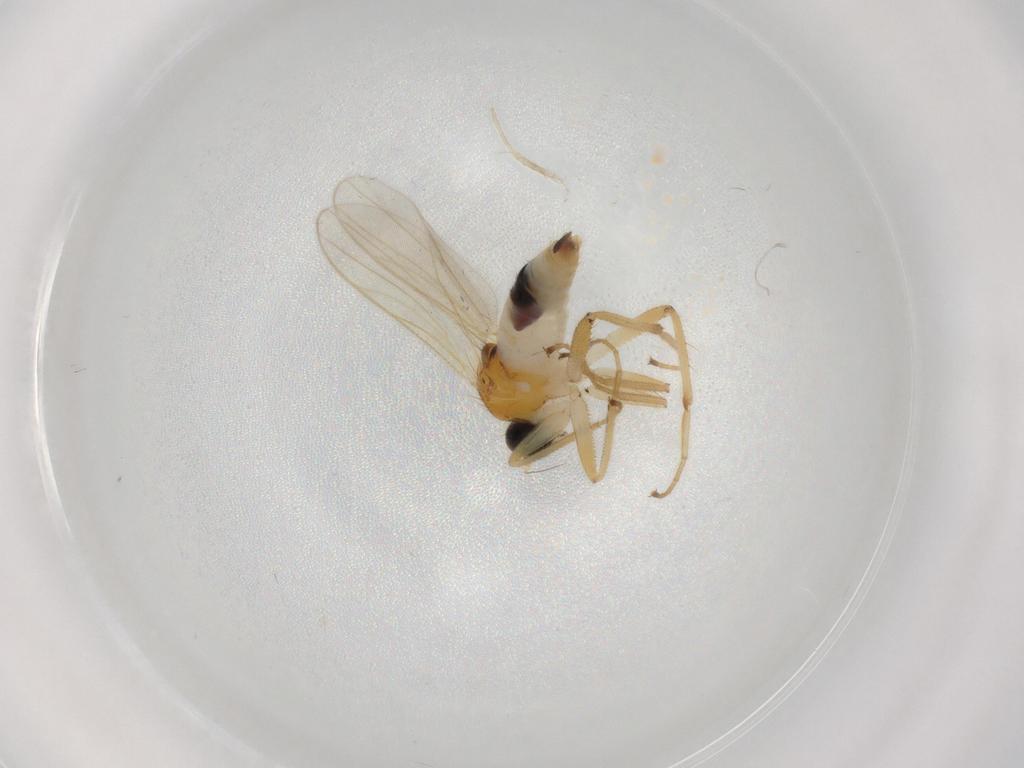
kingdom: Animalia
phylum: Arthropoda
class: Insecta
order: Diptera
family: Hybotidae
